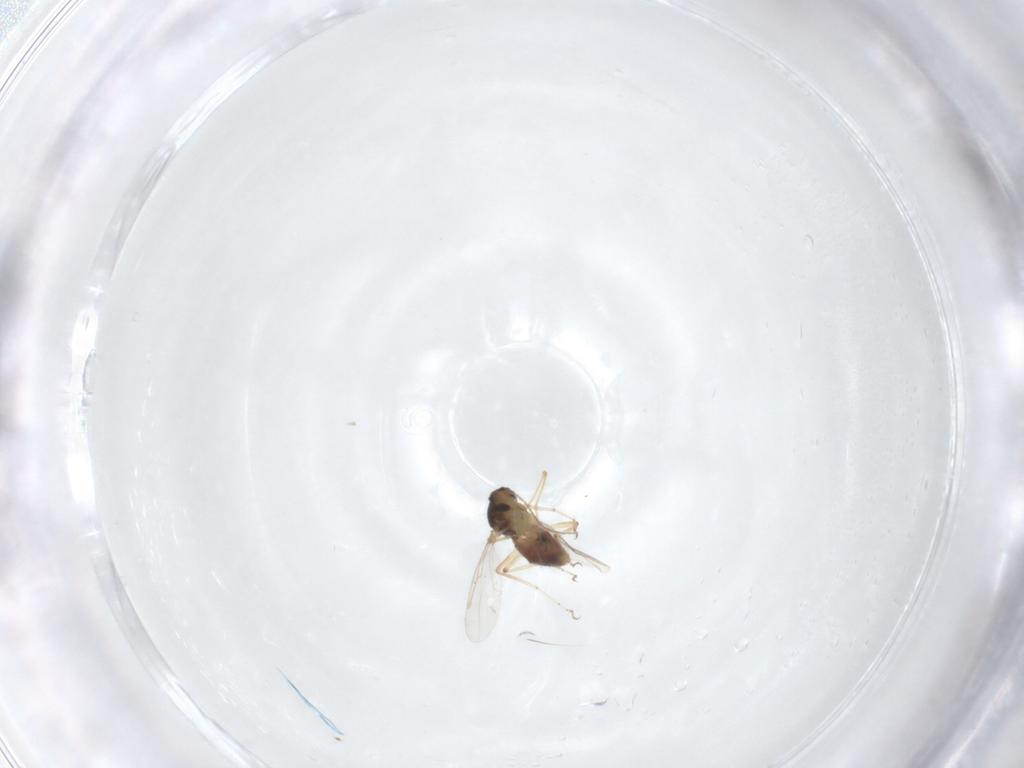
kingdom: Animalia
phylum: Arthropoda
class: Insecta
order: Diptera
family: Ceratopogonidae
